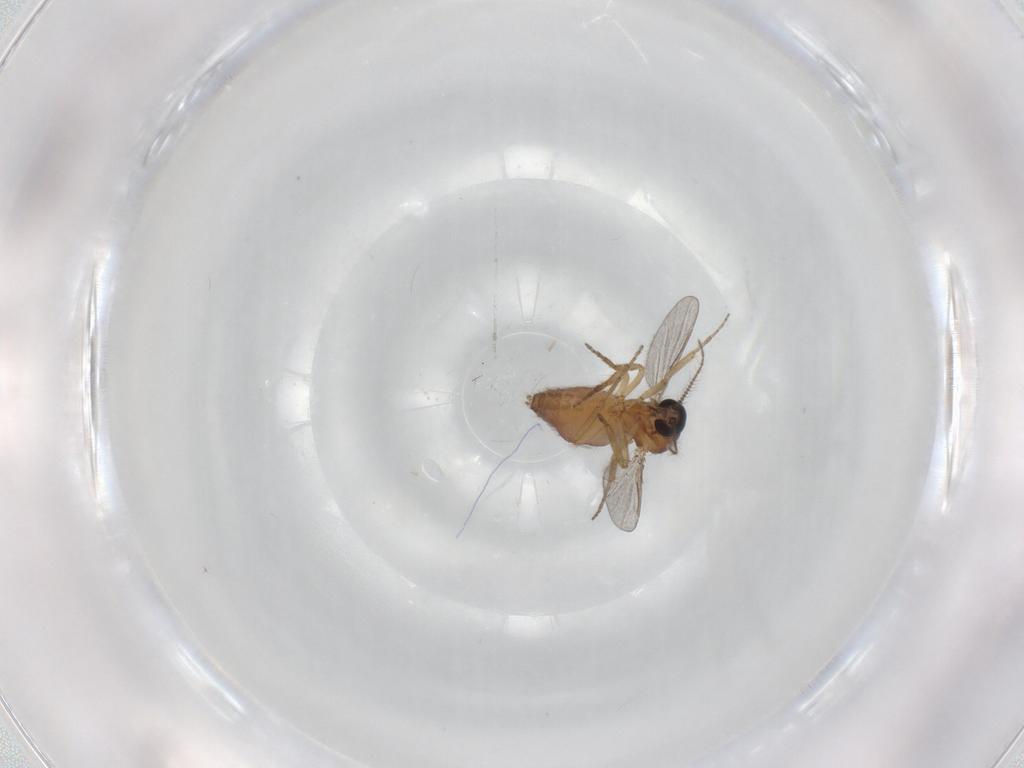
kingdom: Animalia
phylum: Arthropoda
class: Insecta
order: Diptera
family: Ceratopogonidae
